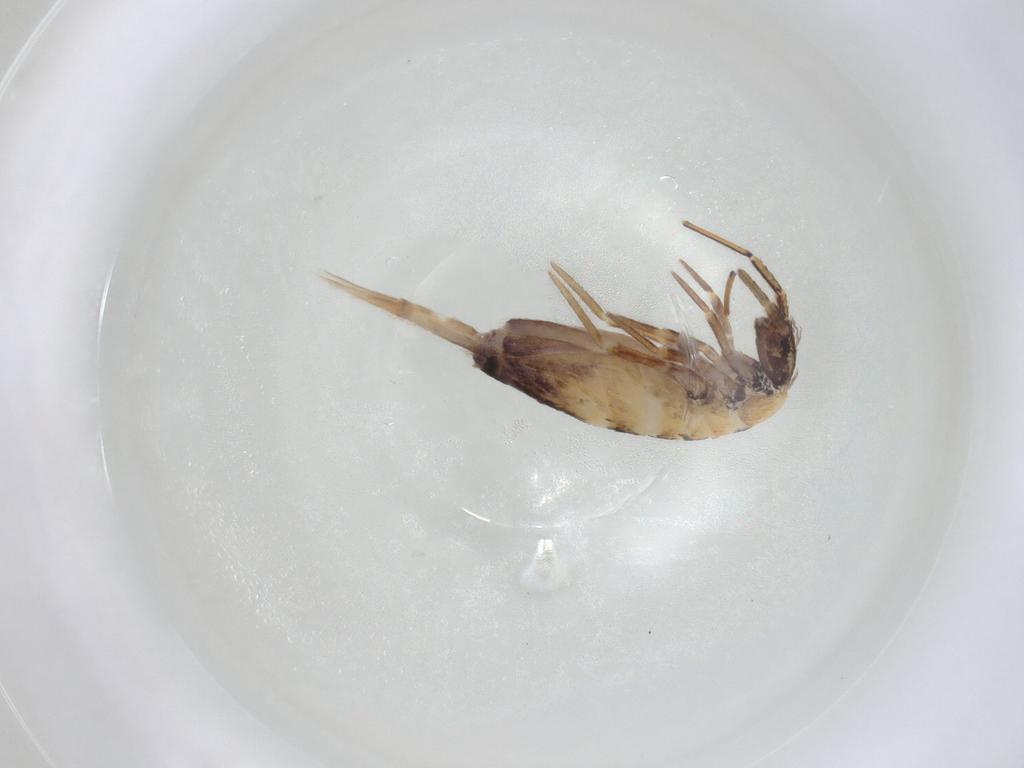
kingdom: Animalia
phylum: Arthropoda
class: Collembola
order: Entomobryomorpha
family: Entomobryidae
